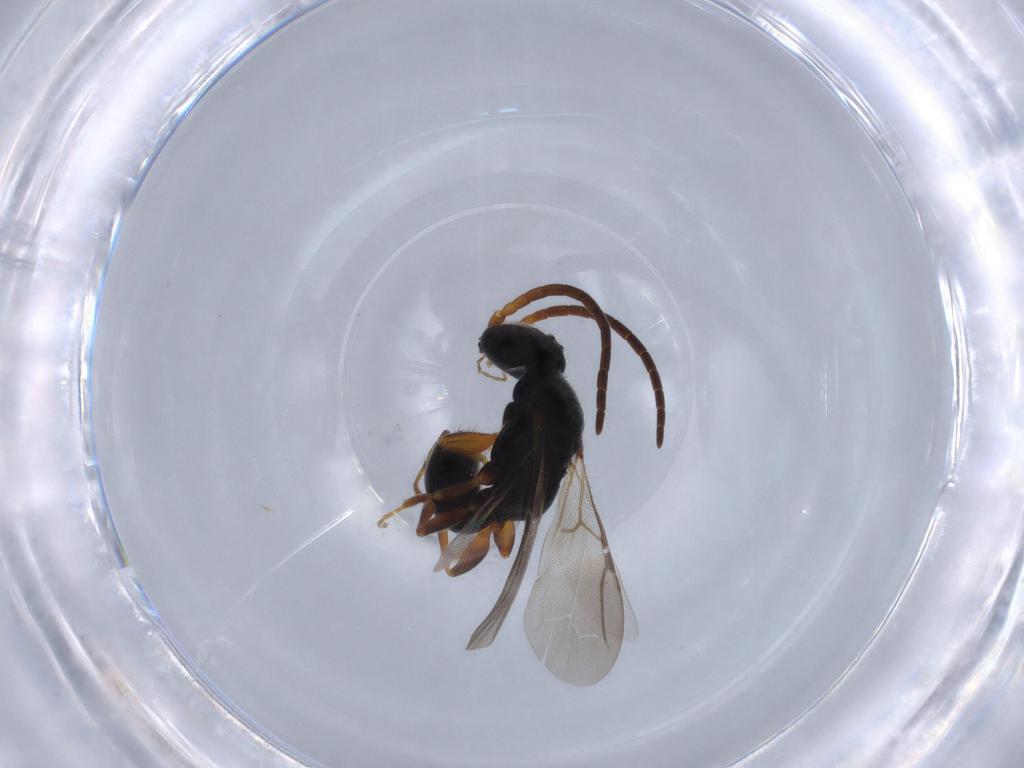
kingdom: Animalia
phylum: Arthropoda
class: Insecta
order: Hymenoptera
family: Bethylidae
